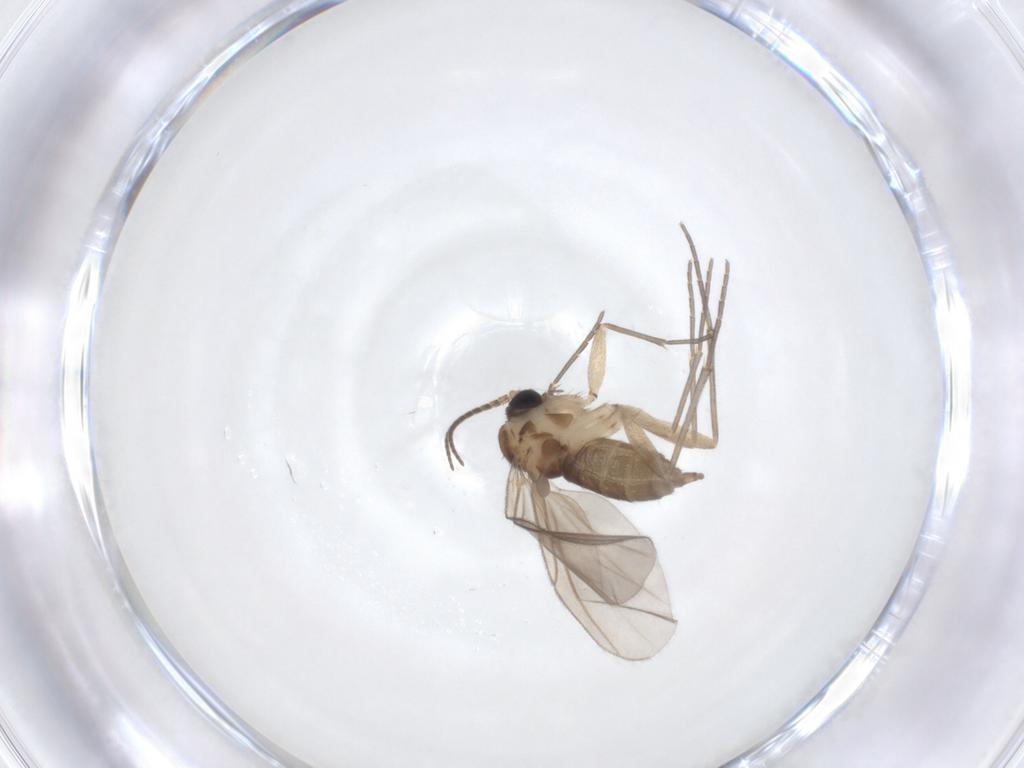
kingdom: Animalia
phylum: Arthropoda
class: Insecta
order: Diptera
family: Sciaridae
